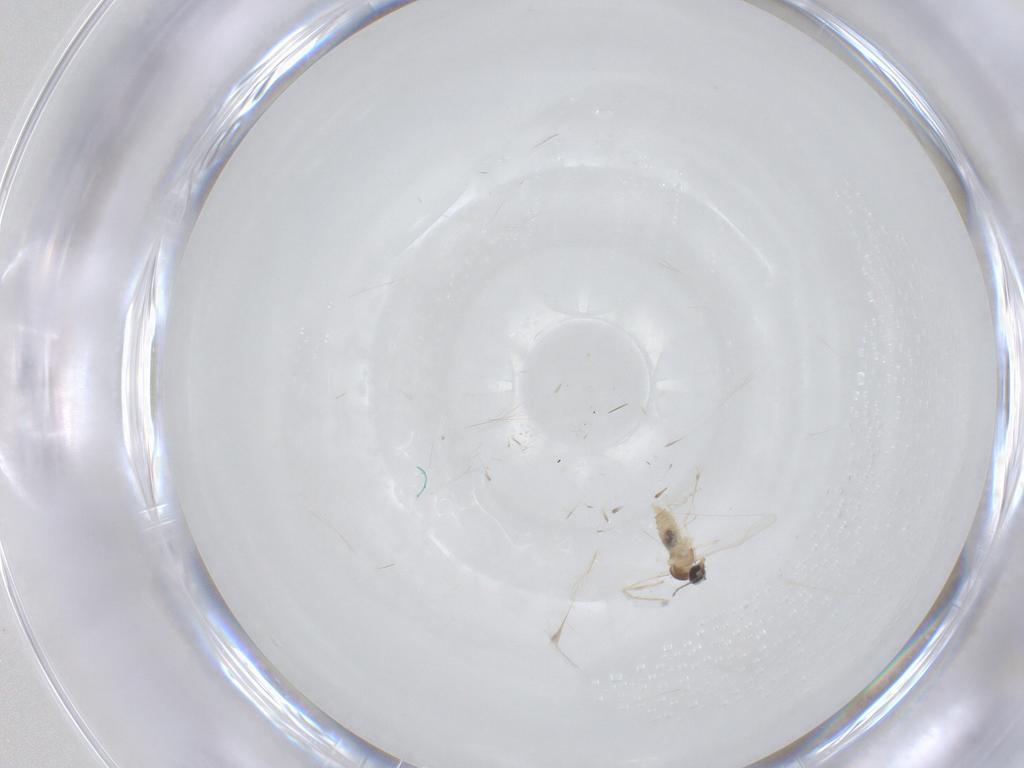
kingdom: Animalia
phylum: Arthropoda
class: Insecta
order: Diptera
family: Cecidomyiidae
